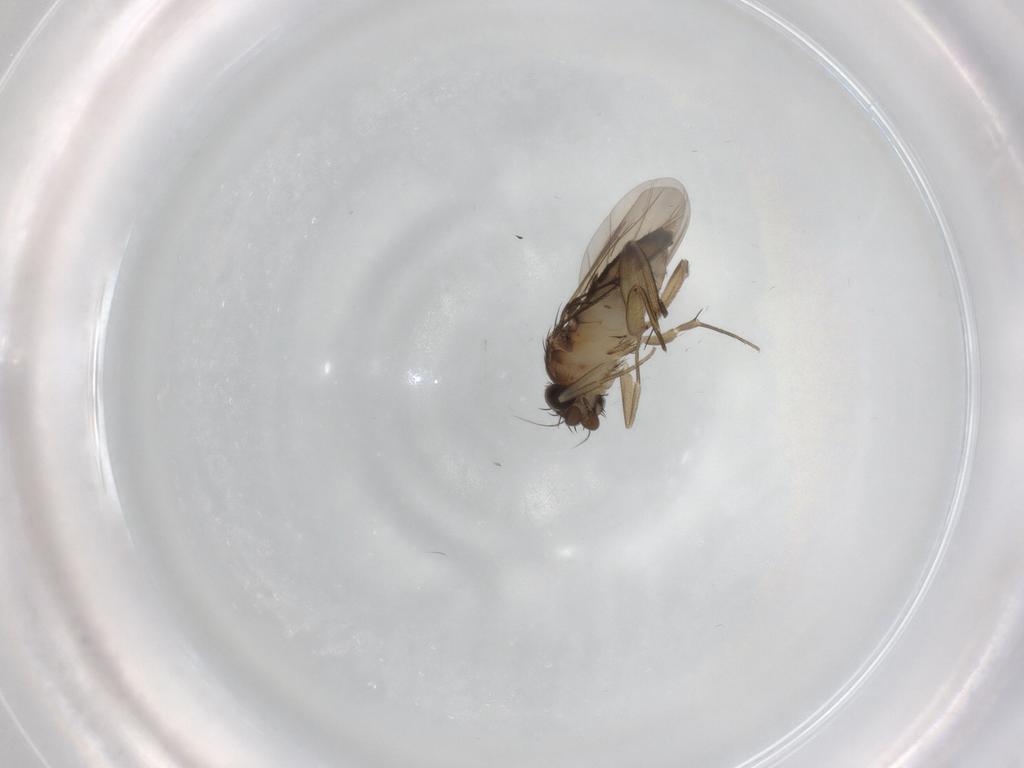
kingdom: Animalia
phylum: Arthropoda
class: Insecta
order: Diptera
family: Phoridae
